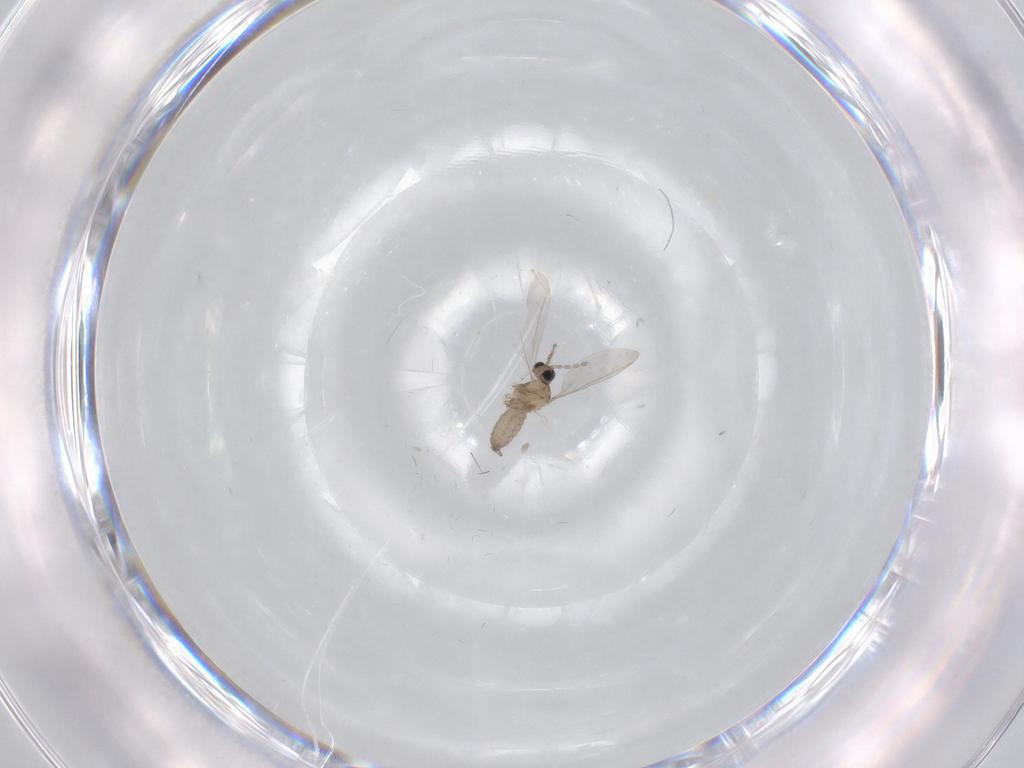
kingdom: Animalia
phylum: Arthropoda
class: Insecta
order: Diptera
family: Cecidomyiidae
